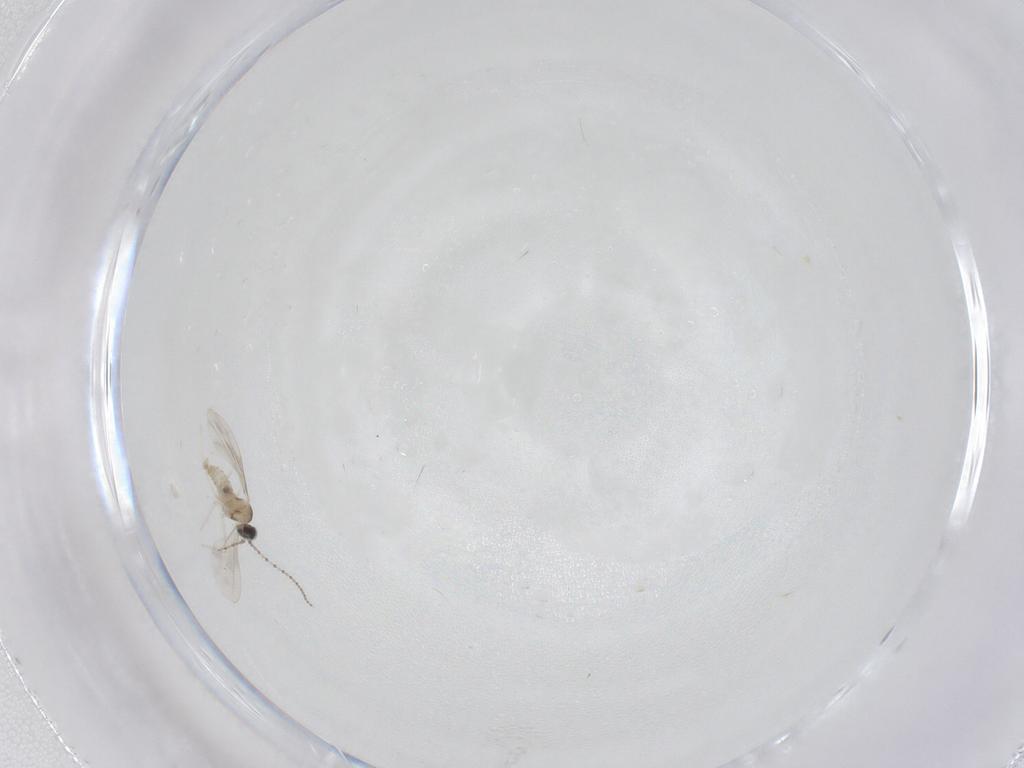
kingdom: Animalia
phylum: Arthropoda
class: Insecta
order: Diptera
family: Cecidomyiidae
